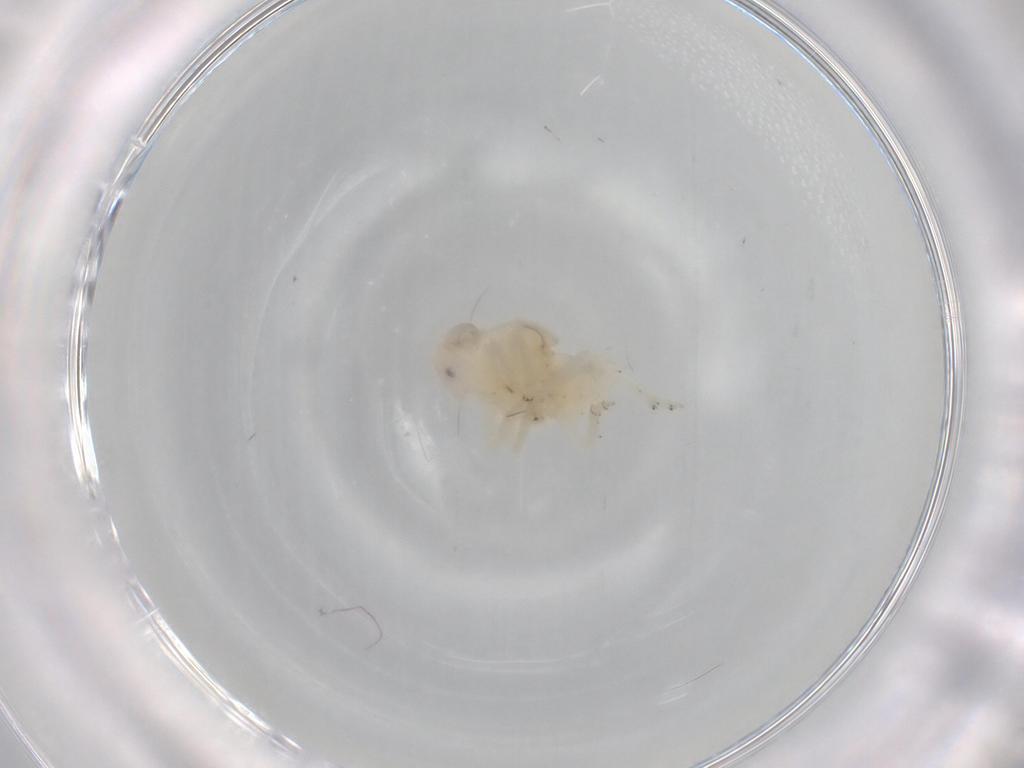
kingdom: Animalia
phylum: Arthropoda
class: Insecta
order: Hemiptera
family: Nogodinidae
